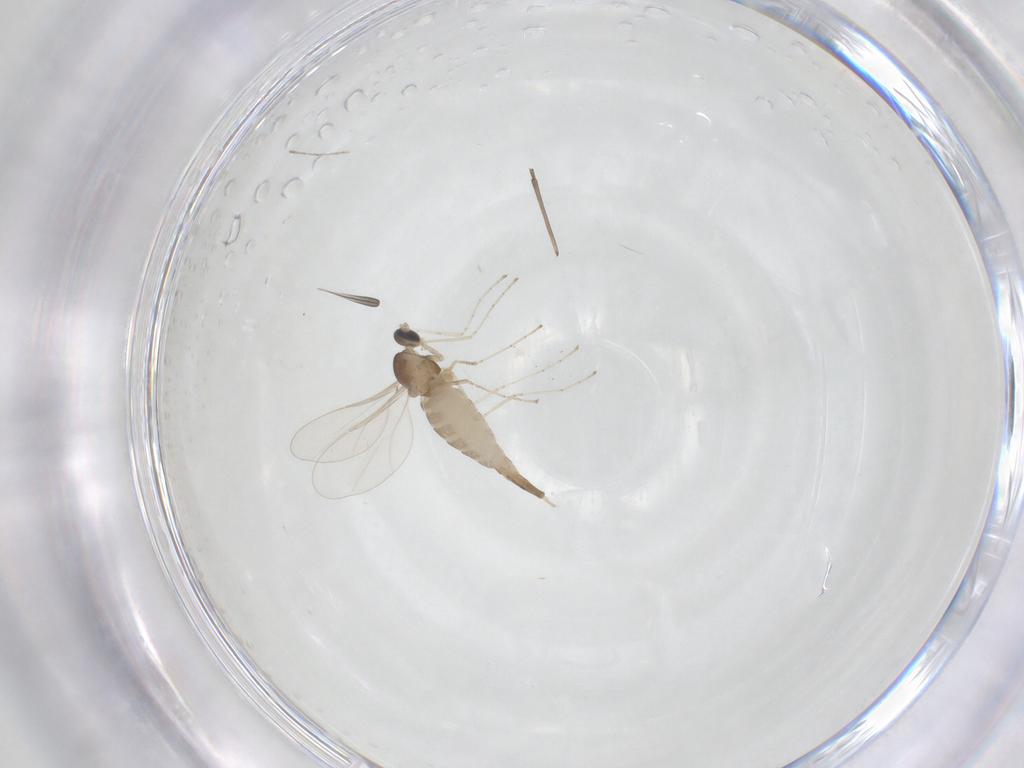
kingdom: Animalia
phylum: Arthropoda
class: Insecta
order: Diptera
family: Cecidomyiidae
